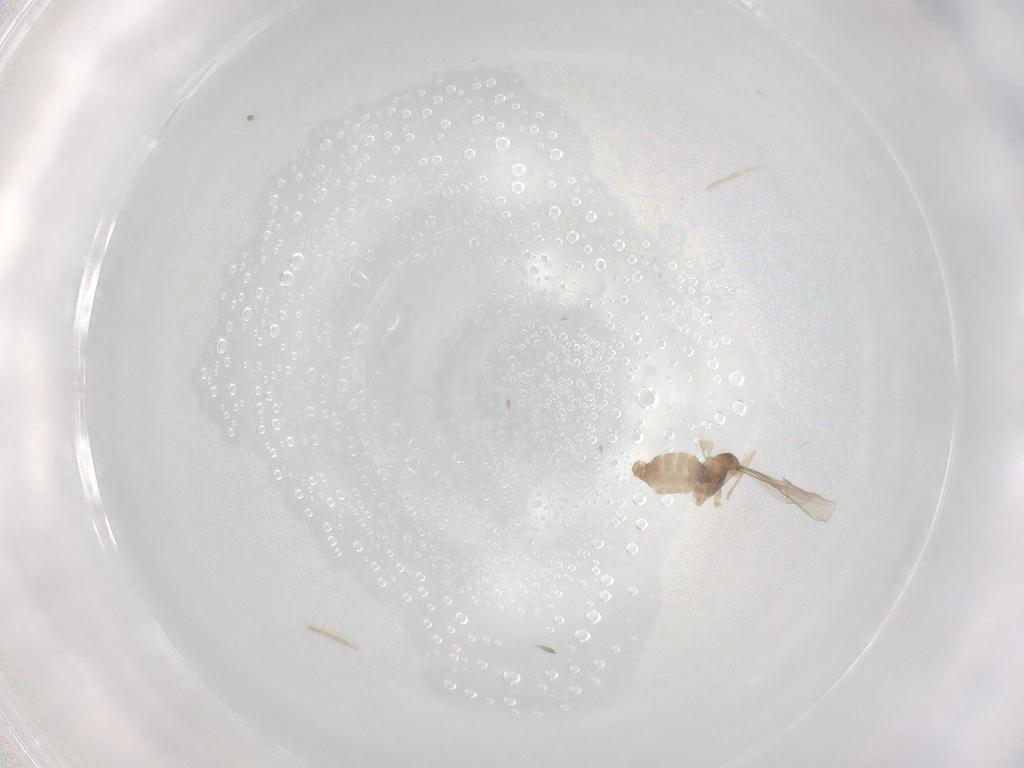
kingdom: Animalia
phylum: Arthropoda
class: Insecta
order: Diptera
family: Cecidomyiidae
